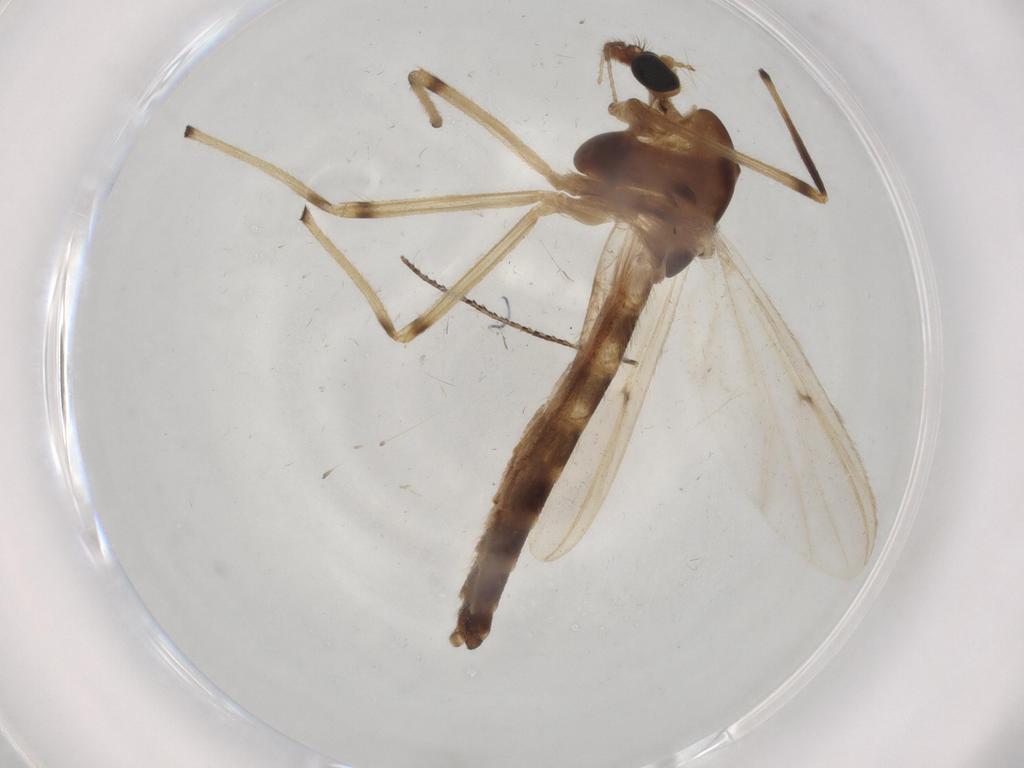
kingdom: Animalia
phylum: Arthropoda
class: Insecta
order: Diptera
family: Chironomidae
